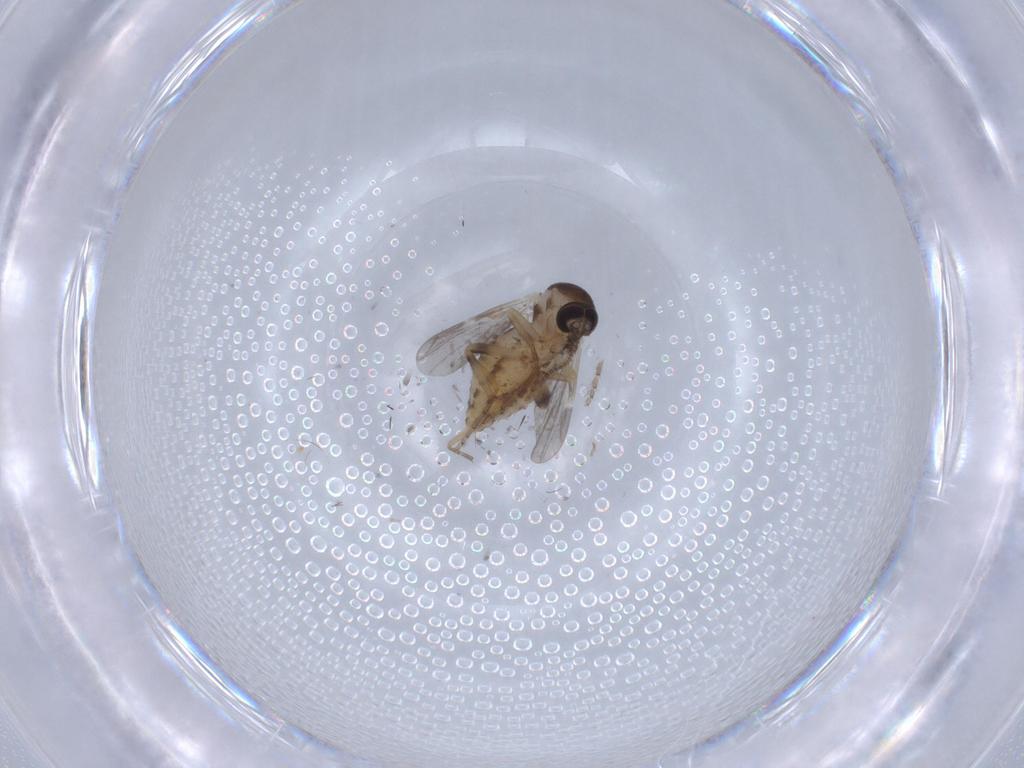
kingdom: Animalia
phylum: Arthropoda
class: Insecta
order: Diptera
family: Ceratopogonidae
